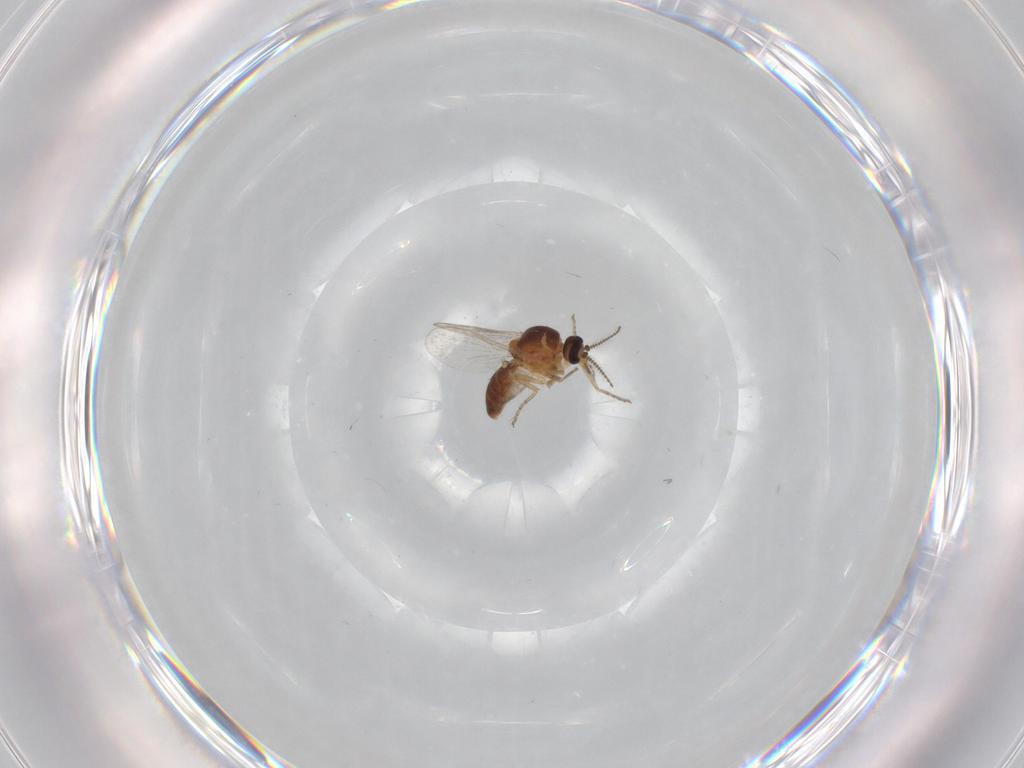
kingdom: Animalia
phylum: Arthropoda
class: Insecta
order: Diptera
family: Ceratopogonidae
